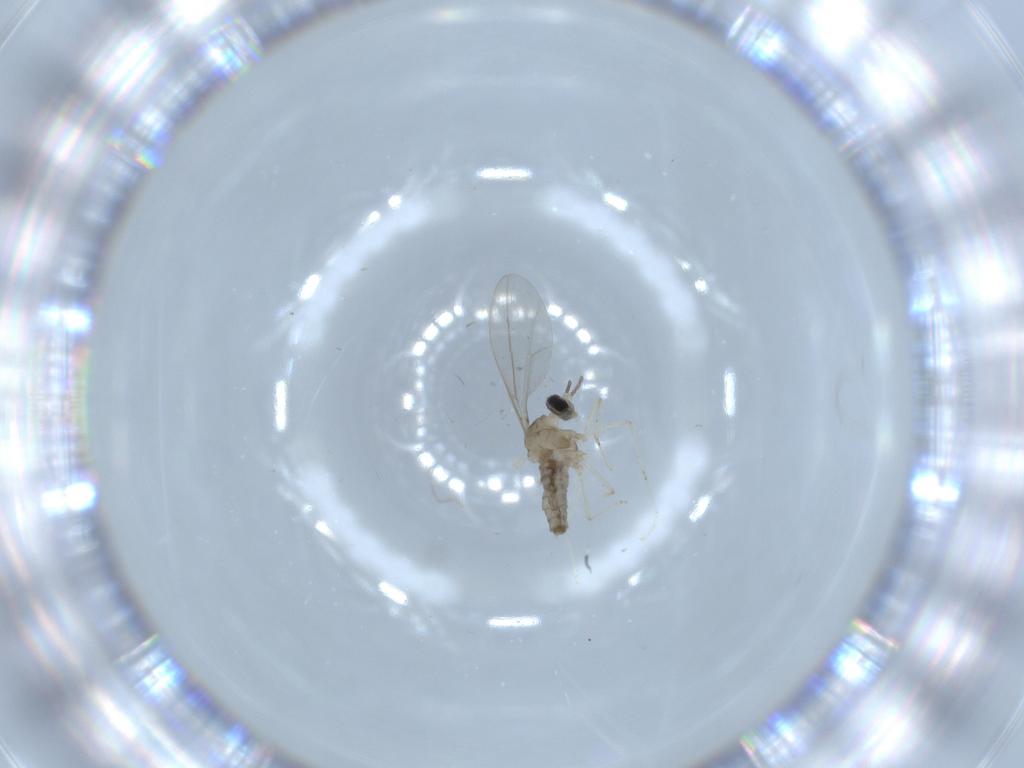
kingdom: Animalia
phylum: Arthropoda
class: Insecta
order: Diptera
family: Cecidomyiidae
